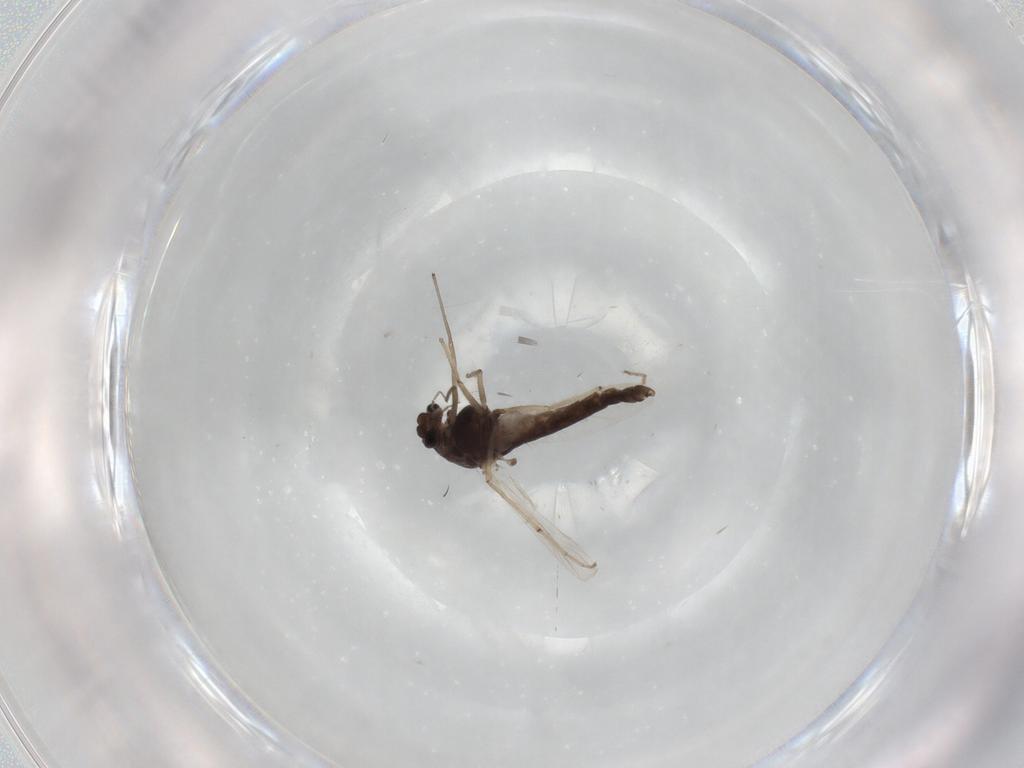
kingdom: Animalia
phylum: Arthropoda
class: Insecta
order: Diptera
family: Chironomidae
